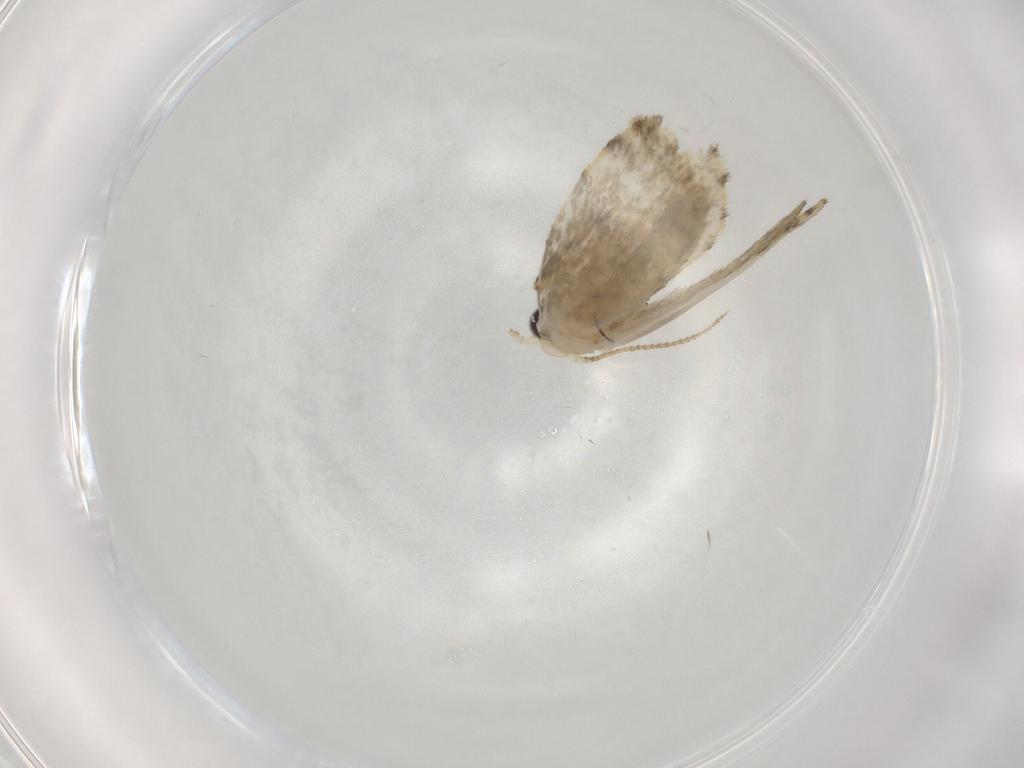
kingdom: Animalia
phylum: Arthropoda
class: Insecta
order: Lepidoptera
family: Psychidae
